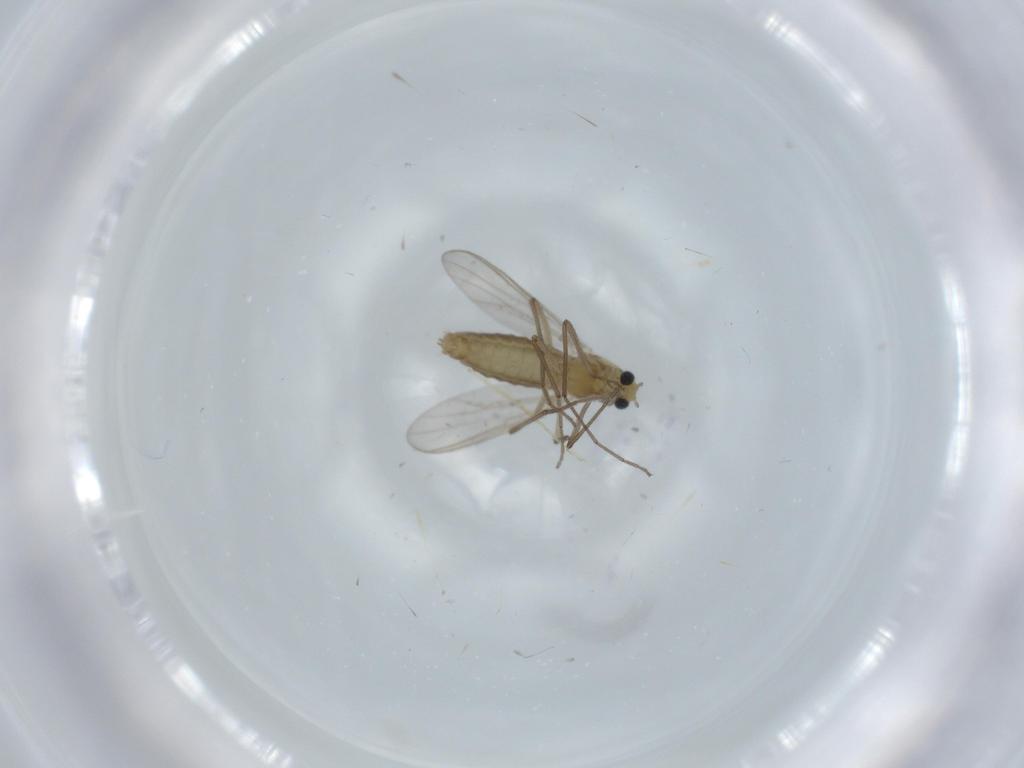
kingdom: Animalia
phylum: Arthropoda
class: Insecta
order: Diptera
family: Chironomidae
